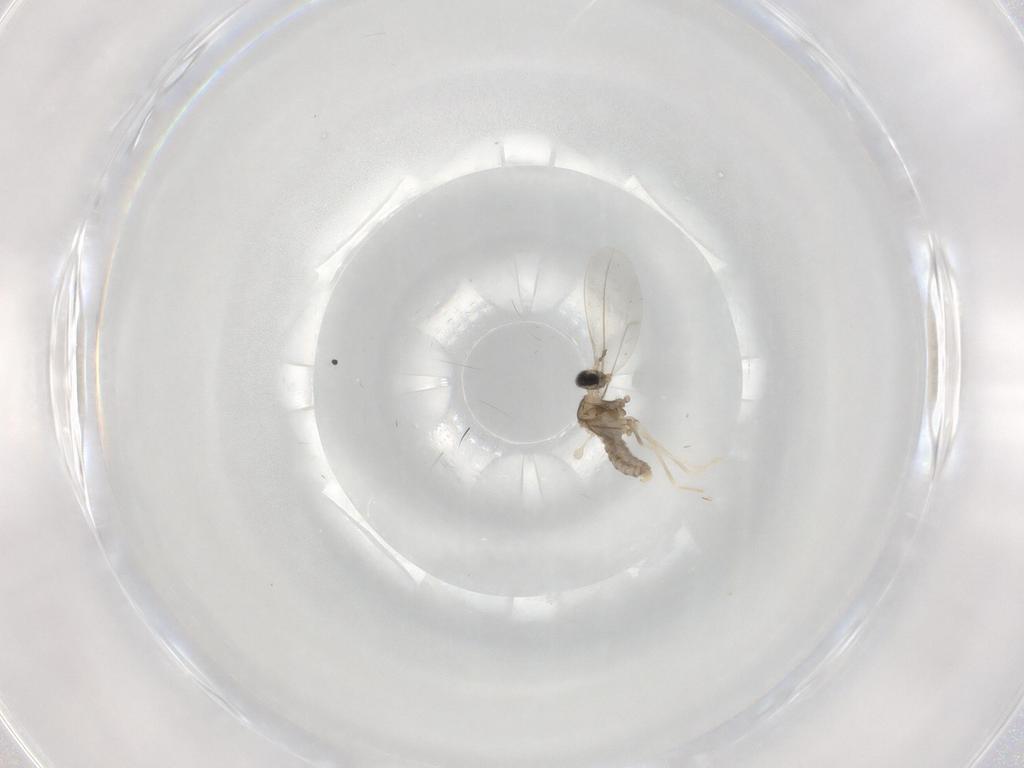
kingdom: Animalia
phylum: Arthropoda
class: Insecta
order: Diptera
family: Cecidomyiidae
